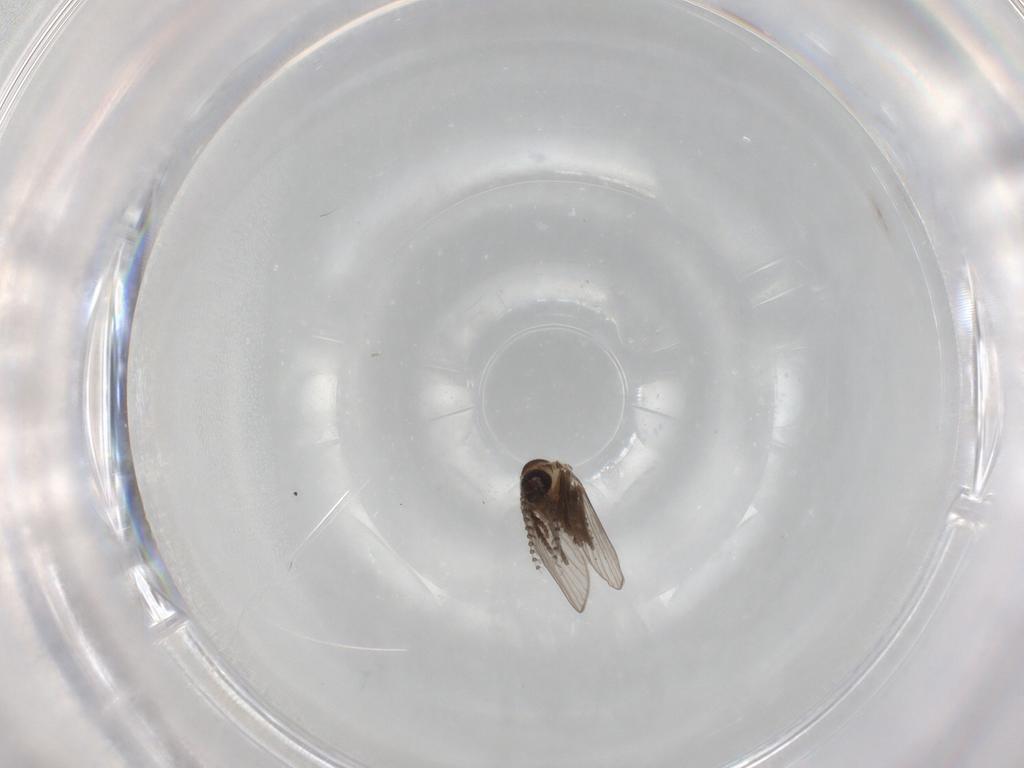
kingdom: Animalia
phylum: Arthropoda
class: Insecta
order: Diptera
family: Psychodidae
